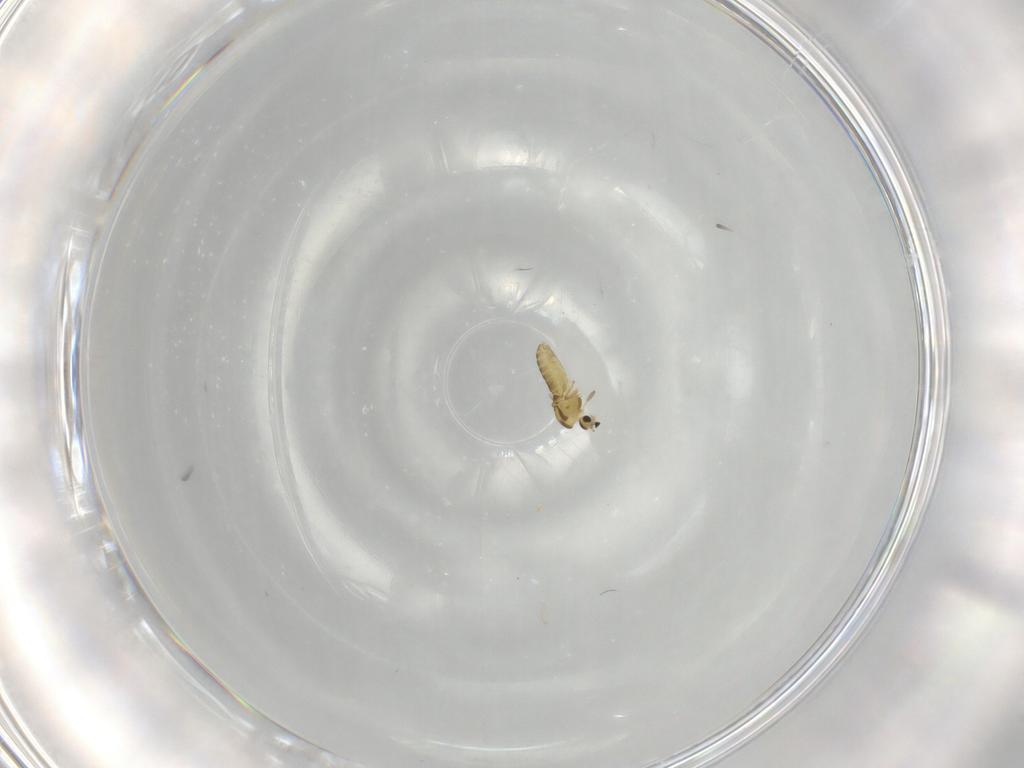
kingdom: Animalia
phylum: Arthropoda
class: Insecta
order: Diptera
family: Chironomidae
